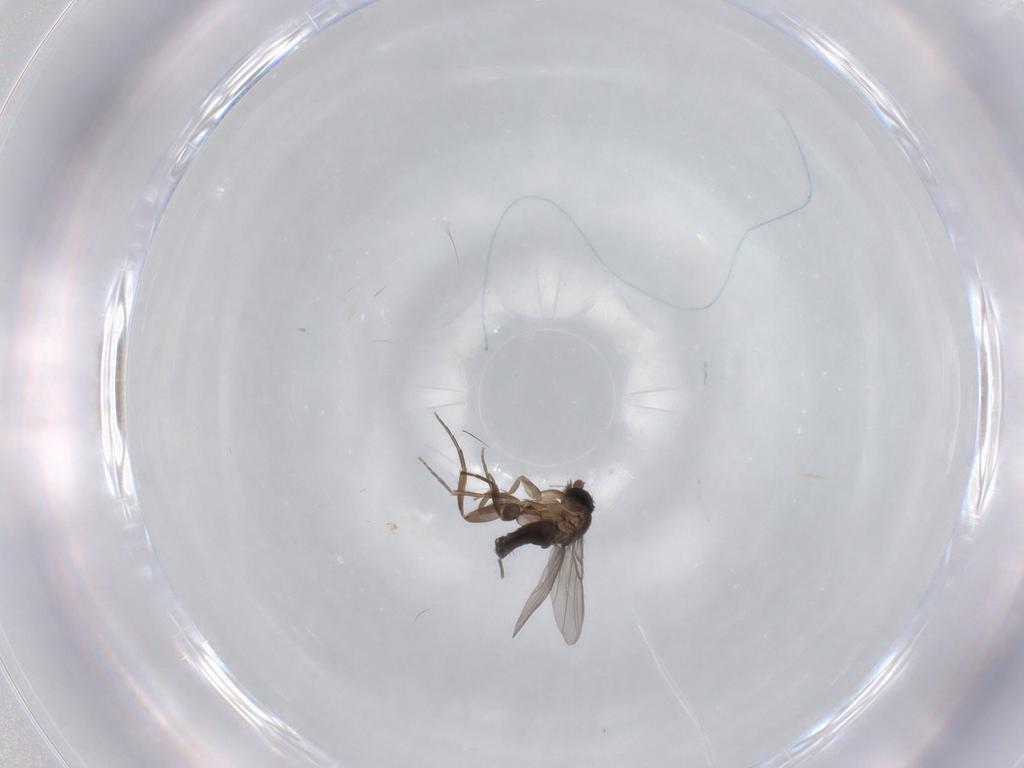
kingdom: Animalia
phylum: Arthropoda
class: Insecta
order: Diptera
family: Phoridae
